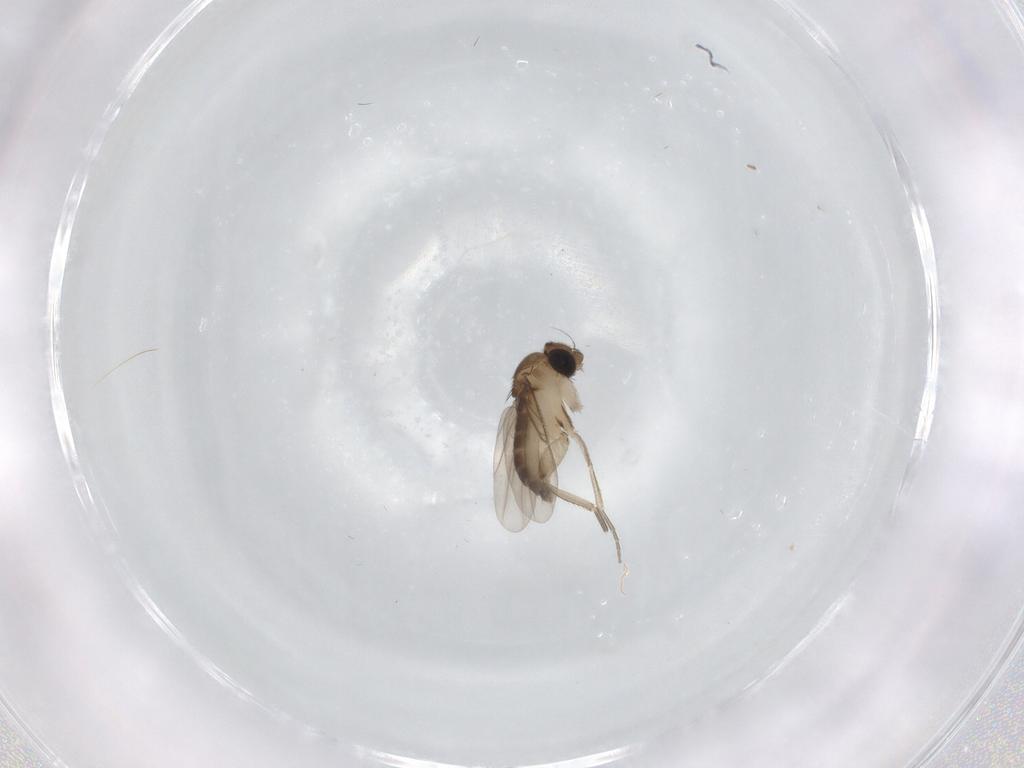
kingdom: Animalia
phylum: Arthropoda
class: Insecta
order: Diptera
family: Phoridae
